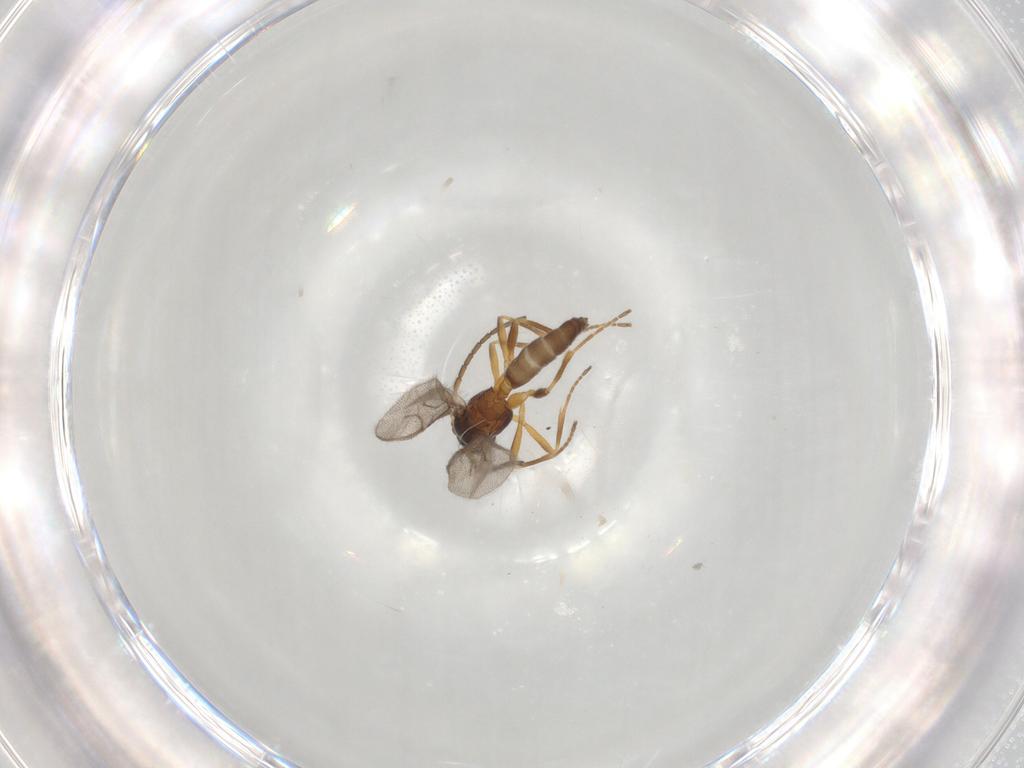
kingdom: Animalia
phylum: Arthropoda
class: Insecta
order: Hymenoptera
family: Braconidae
